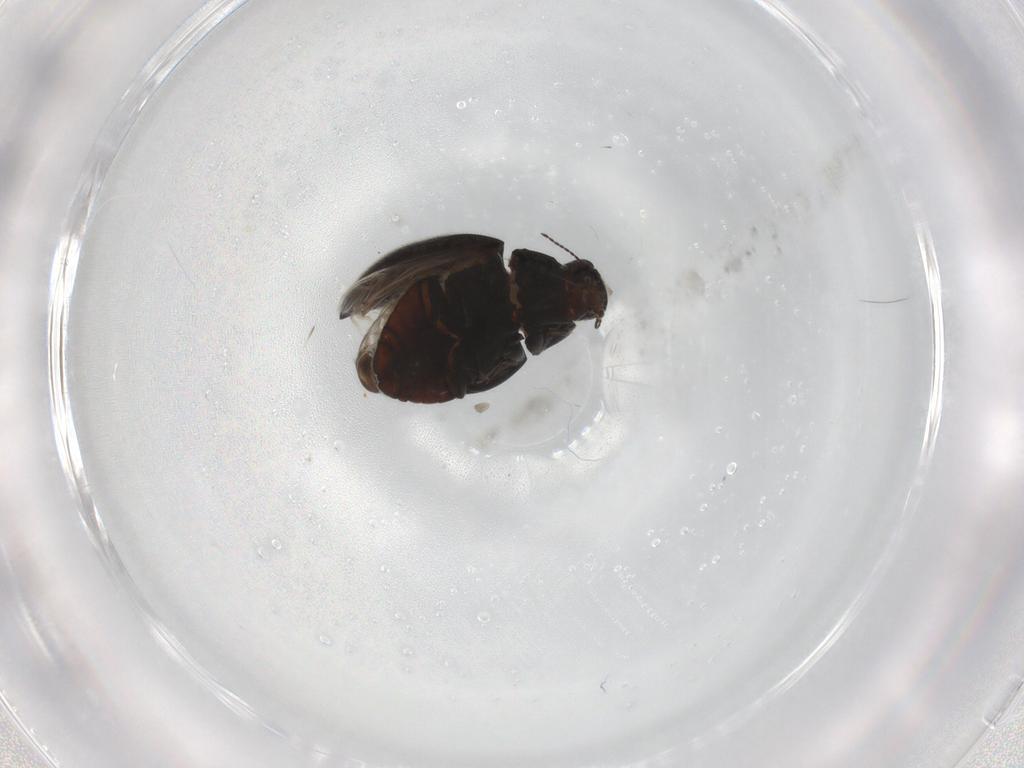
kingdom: Animalia
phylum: Arthropoda
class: Insecta
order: Coleoptera
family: Limnichidae
